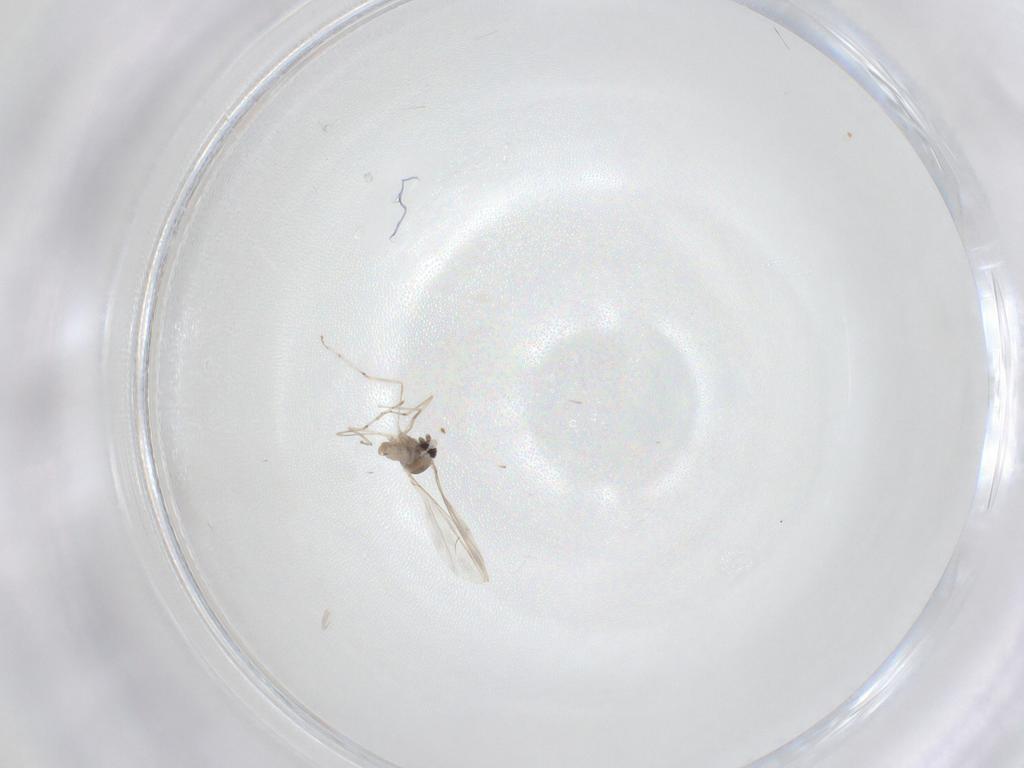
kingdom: Animalia
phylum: Arthropoda
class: Insecta
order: Diptera
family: Cecidomyiidae
